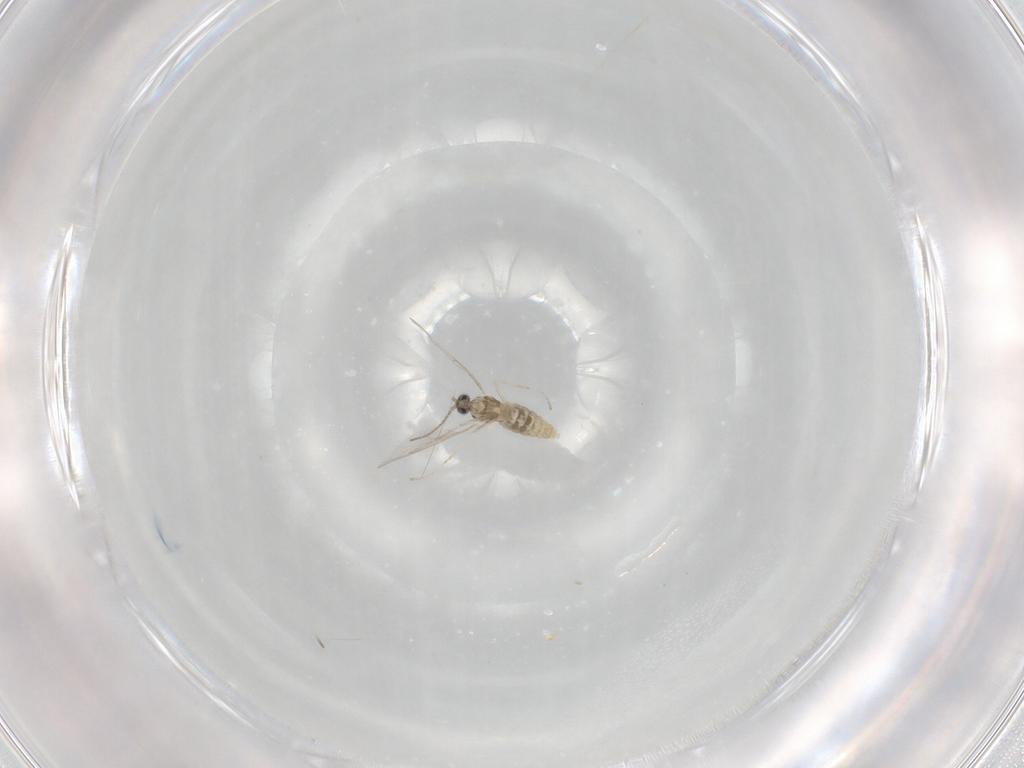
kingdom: Animalia
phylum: Arthropoda
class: Insecta
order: Diptera
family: Cecidomyiidae
